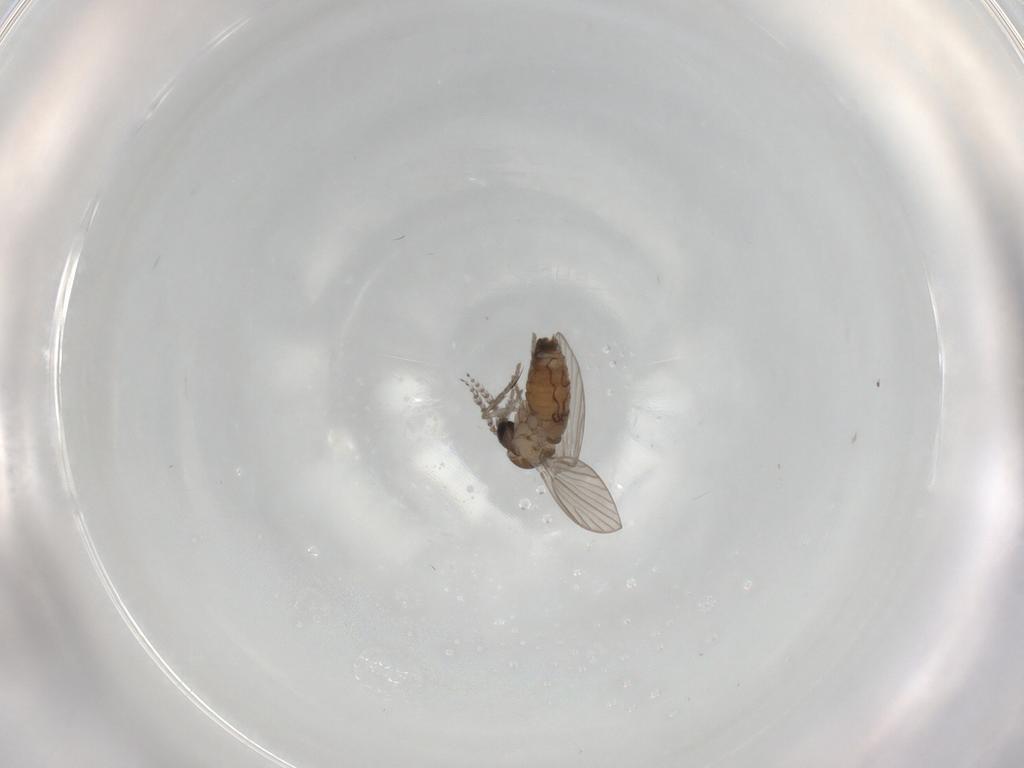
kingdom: Animalia
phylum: Arthropoda
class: Insecta
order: Diptera
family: Psychodidae
